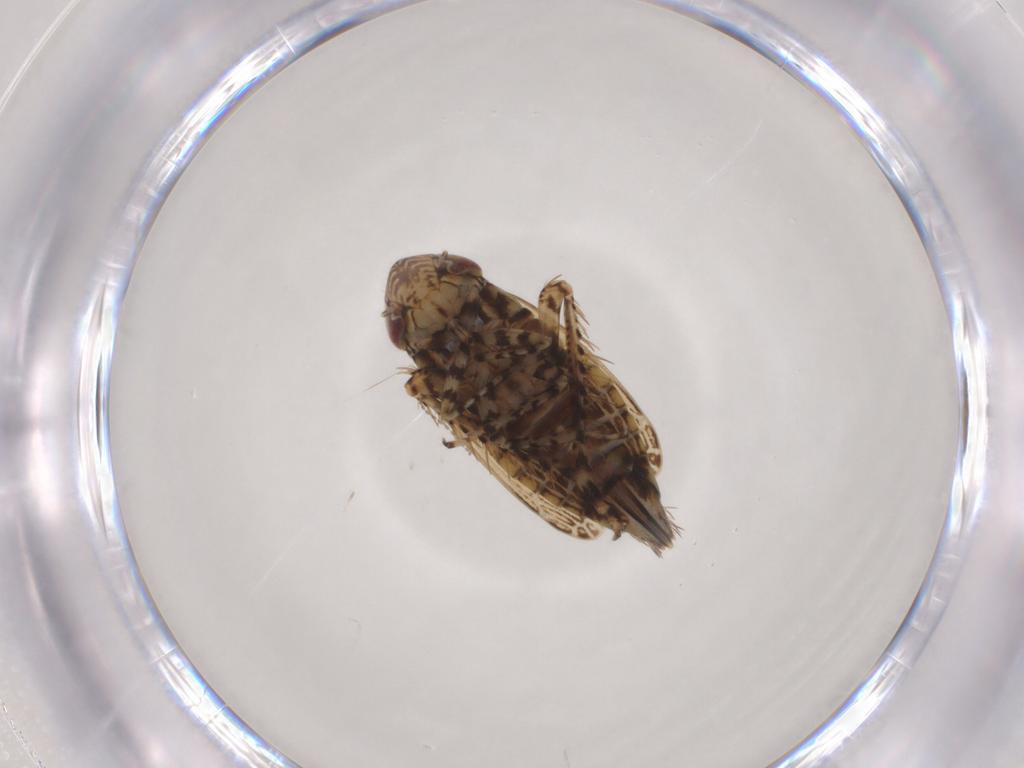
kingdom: Animalia
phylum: Arthropoda
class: Insecta
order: Hemiptera
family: Cicadellidae
